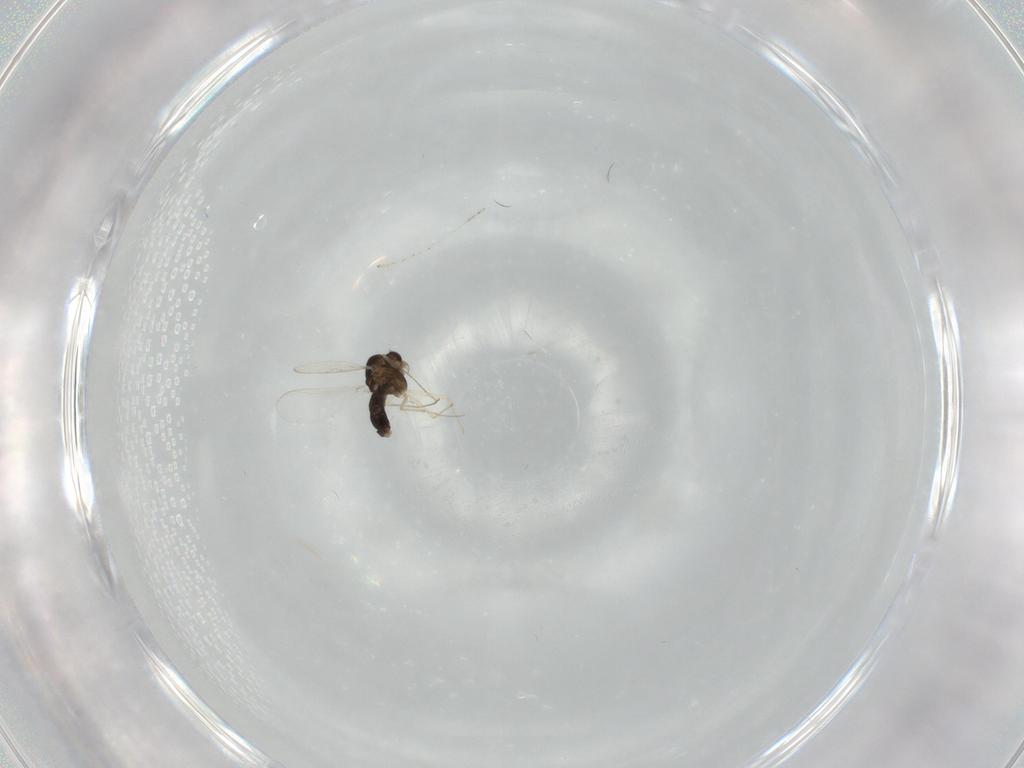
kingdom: Animalia
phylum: Arthropoda
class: Insecta
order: Diptera
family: Chironomidae
